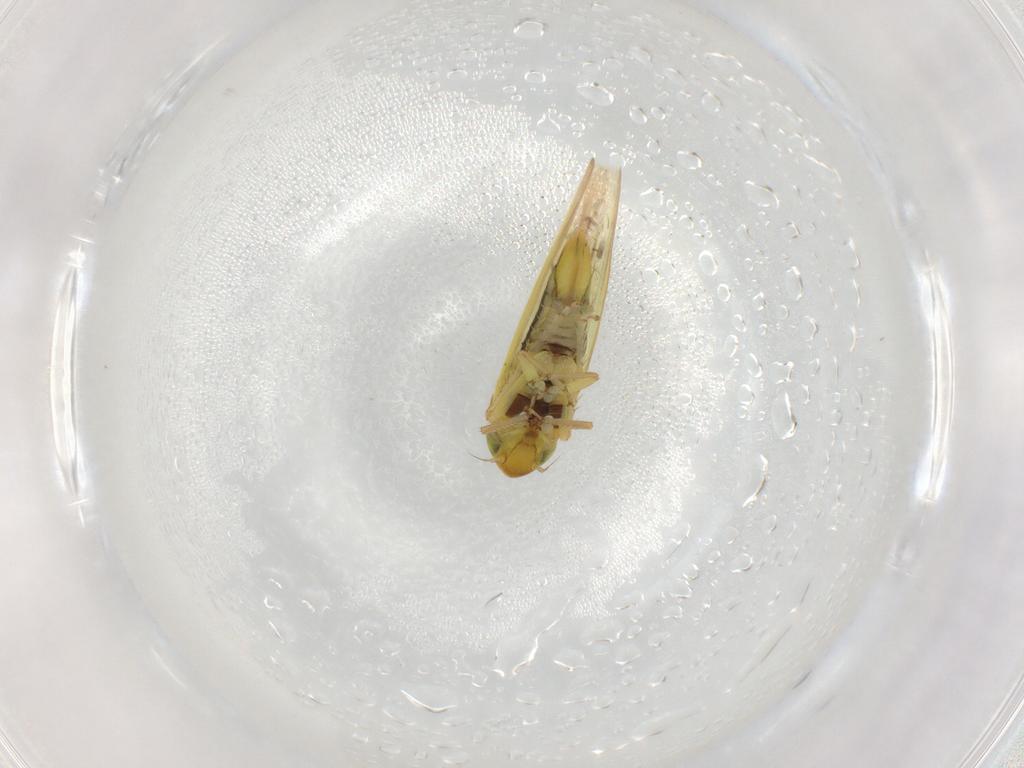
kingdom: Animalia
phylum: Arthropoda
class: Insecta
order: Hemiptera
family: Cicadellidae
